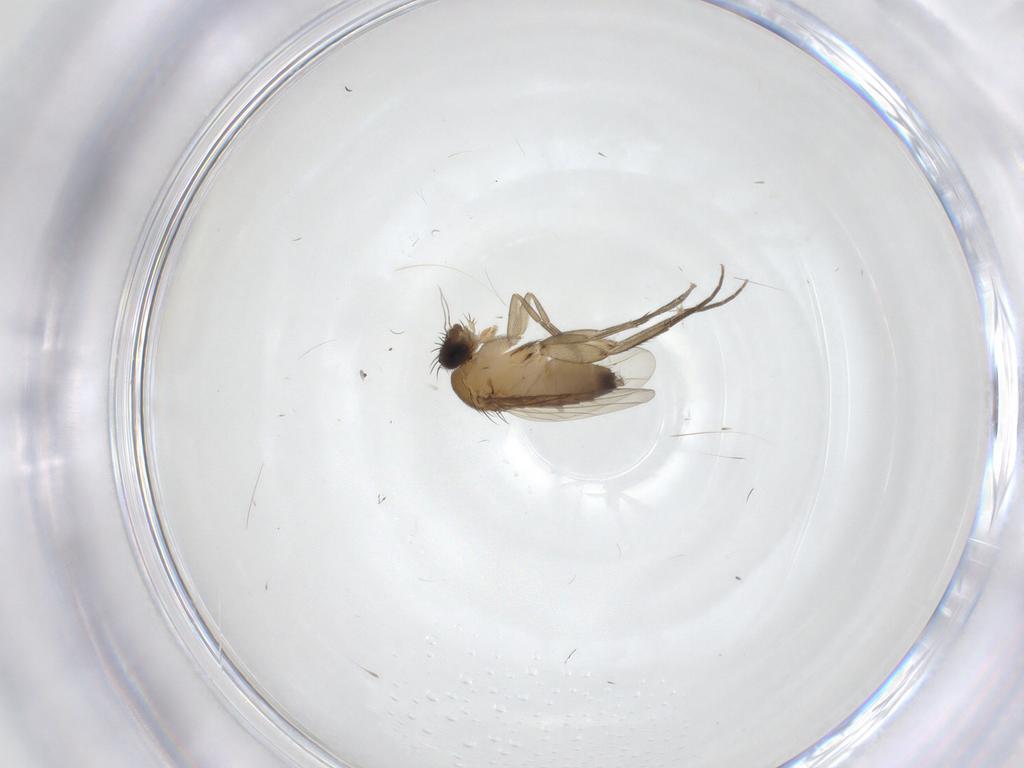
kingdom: Animalia
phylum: Arthropoda
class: Insecta
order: Diptera
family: Phoridae
